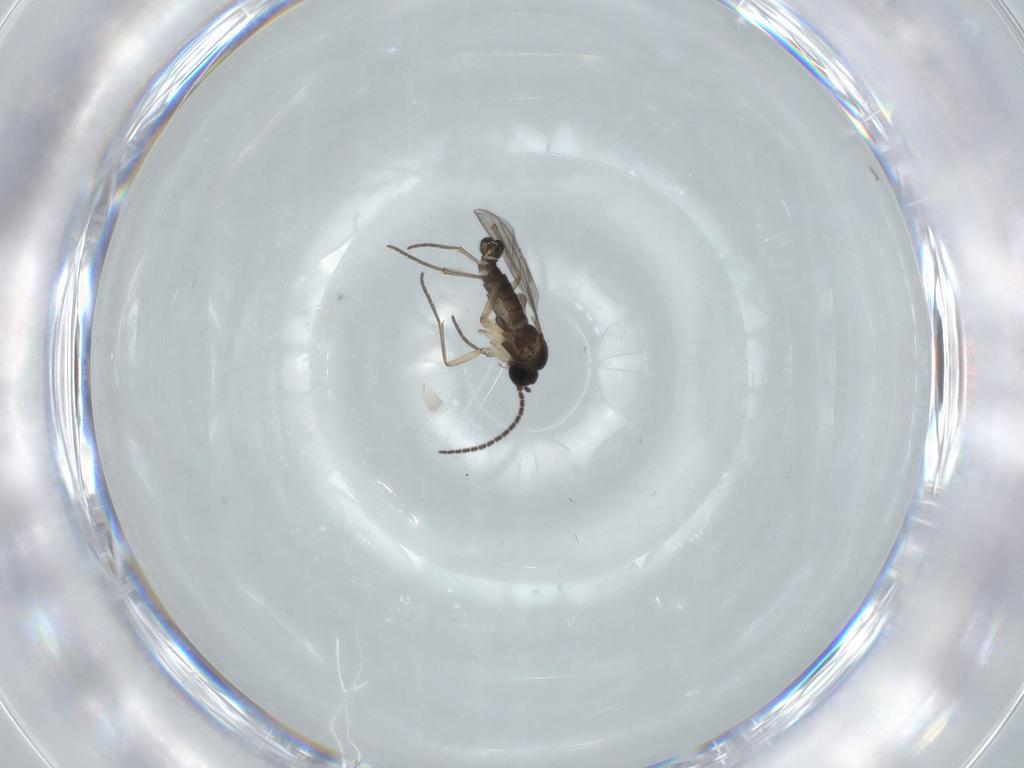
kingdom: Animalia
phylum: Arthropoda
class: Insecta
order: Diptera
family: Sciaridae
